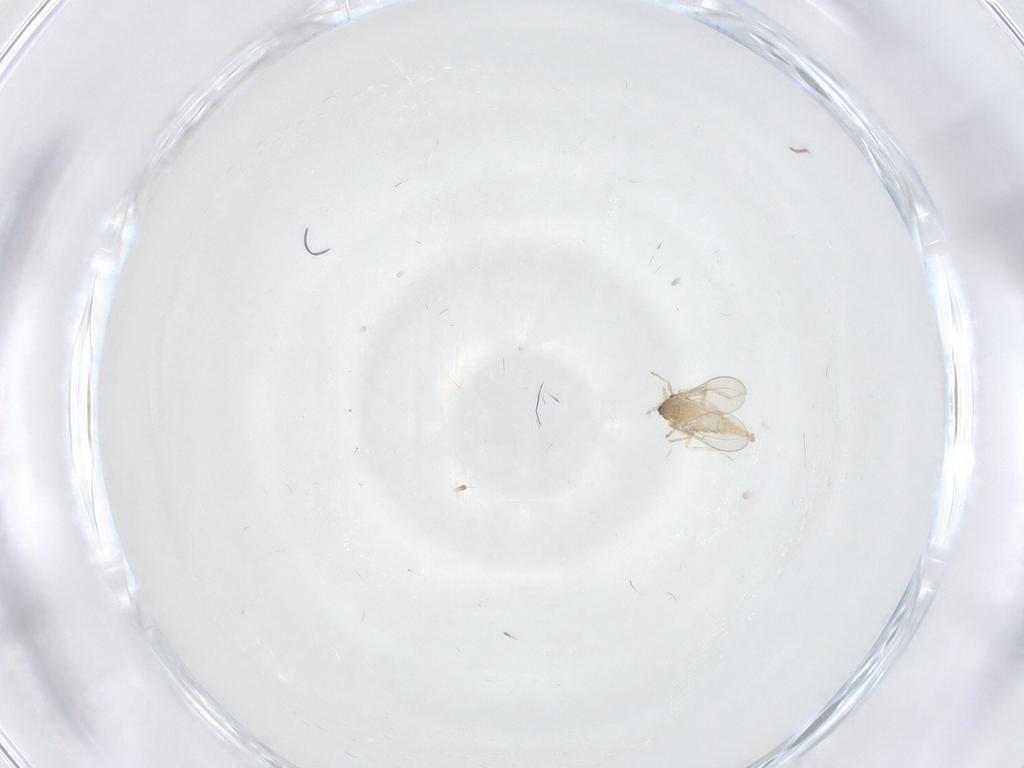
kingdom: Animalia
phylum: Arthropoda
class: Insecta
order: Diptera
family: Cecidomyiidae
